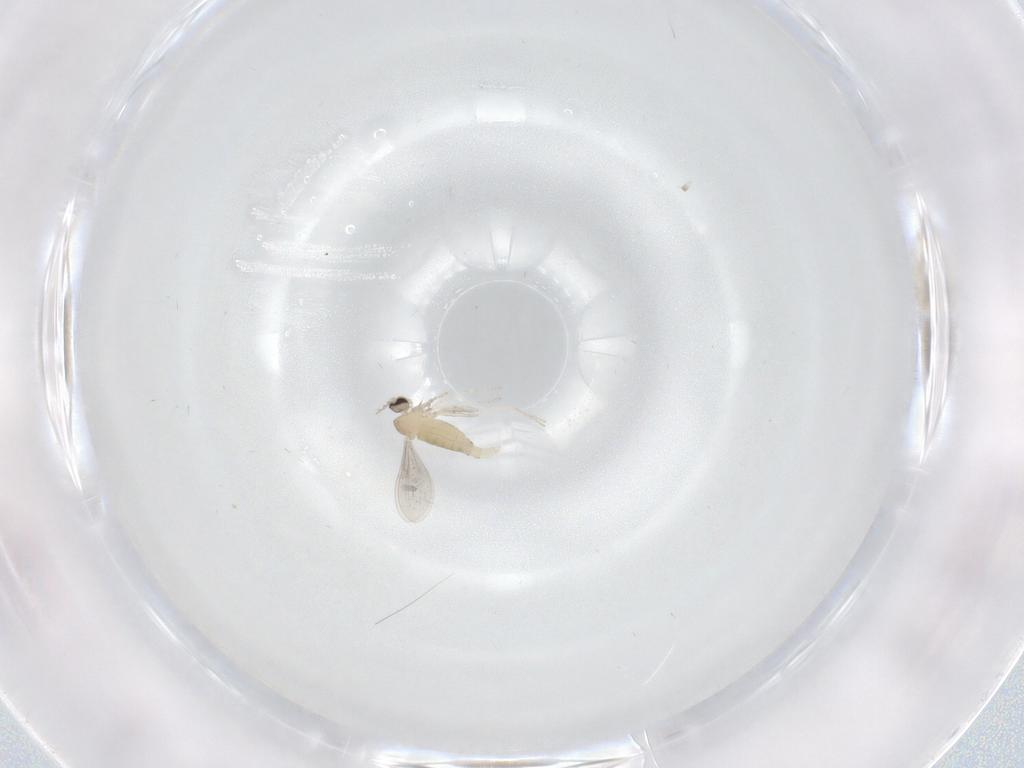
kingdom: Animalia
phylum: Arthropoda
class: Insecta
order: Diptera
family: Cecidomyiidae
